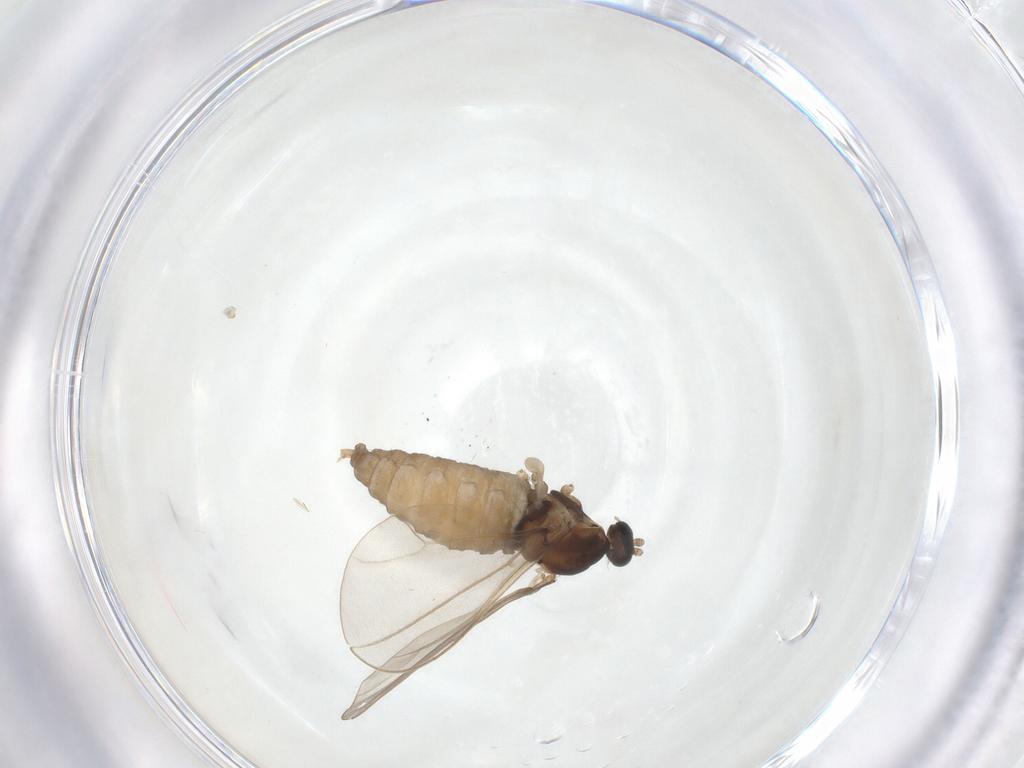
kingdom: Animalia
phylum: Arthropoda
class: Insecta
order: Diptera
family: Cecidomyiidae
